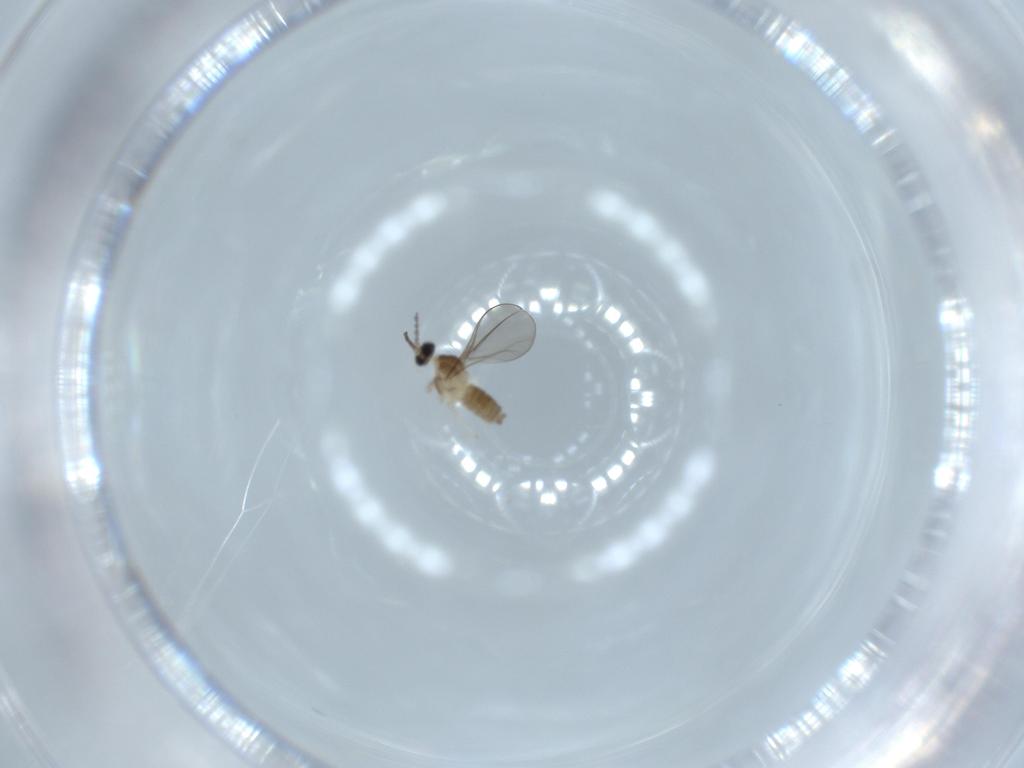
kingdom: Animalia
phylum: Arthropoda
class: Insecta
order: Diptera
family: Cecidomyiidae
